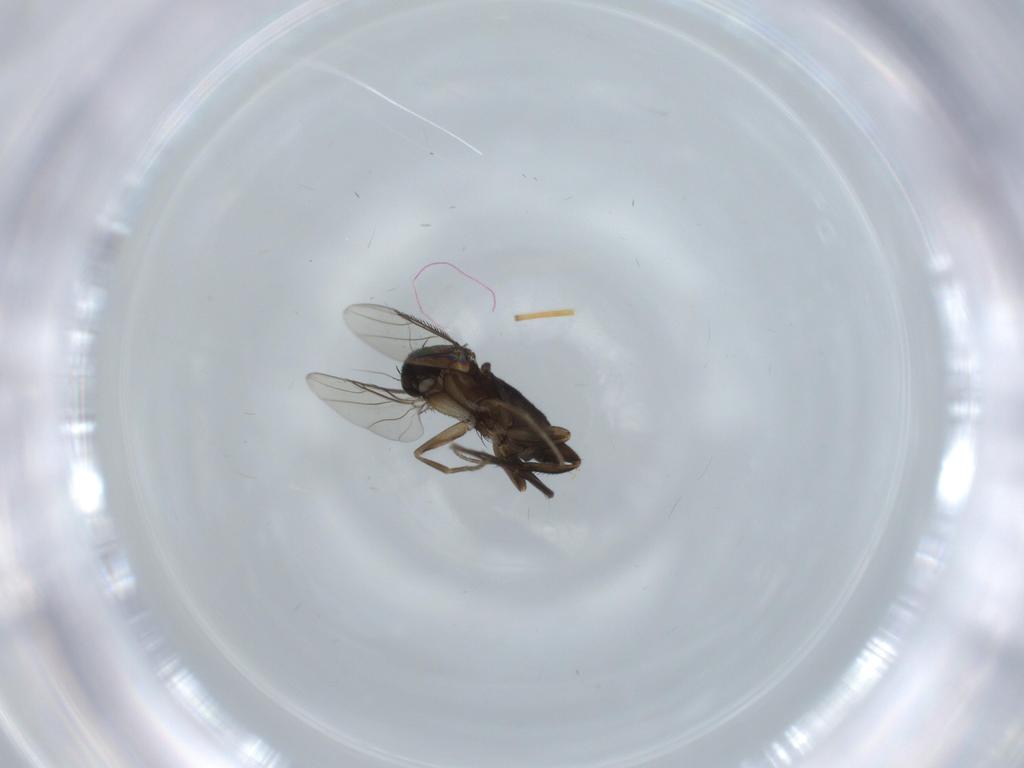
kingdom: Animalia
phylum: Arthropoda
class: Insecta
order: Diptera
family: Phoridae
